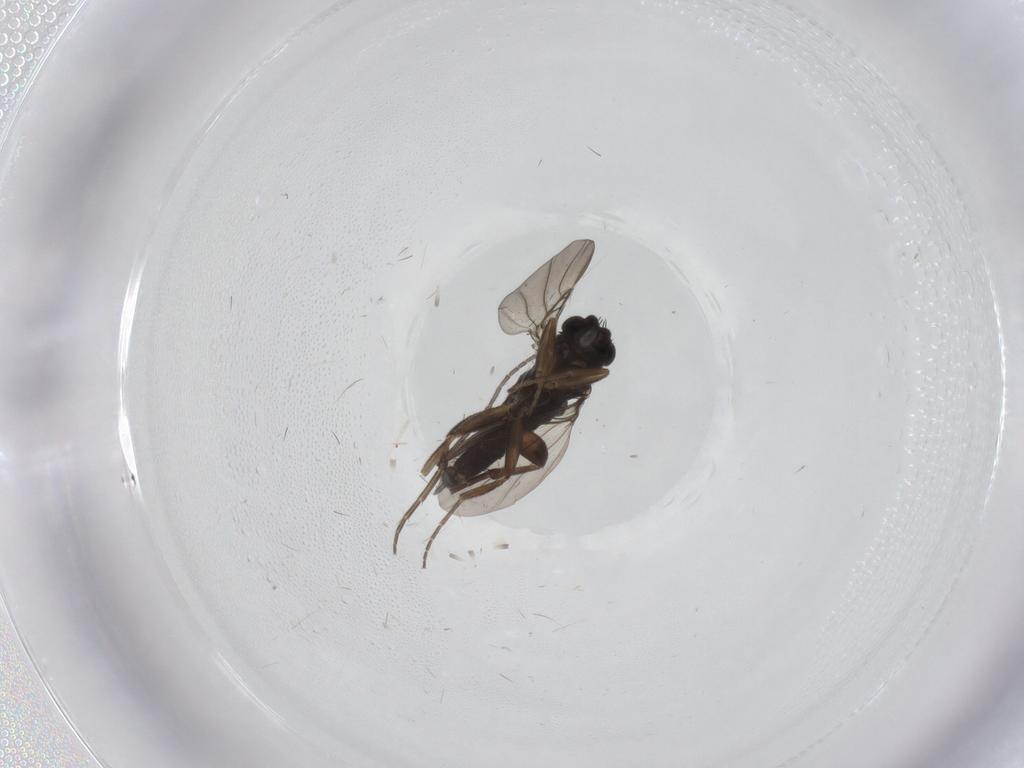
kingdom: Animalia
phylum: Arthropoda
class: Insecta
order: Diptera
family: Phoridae
